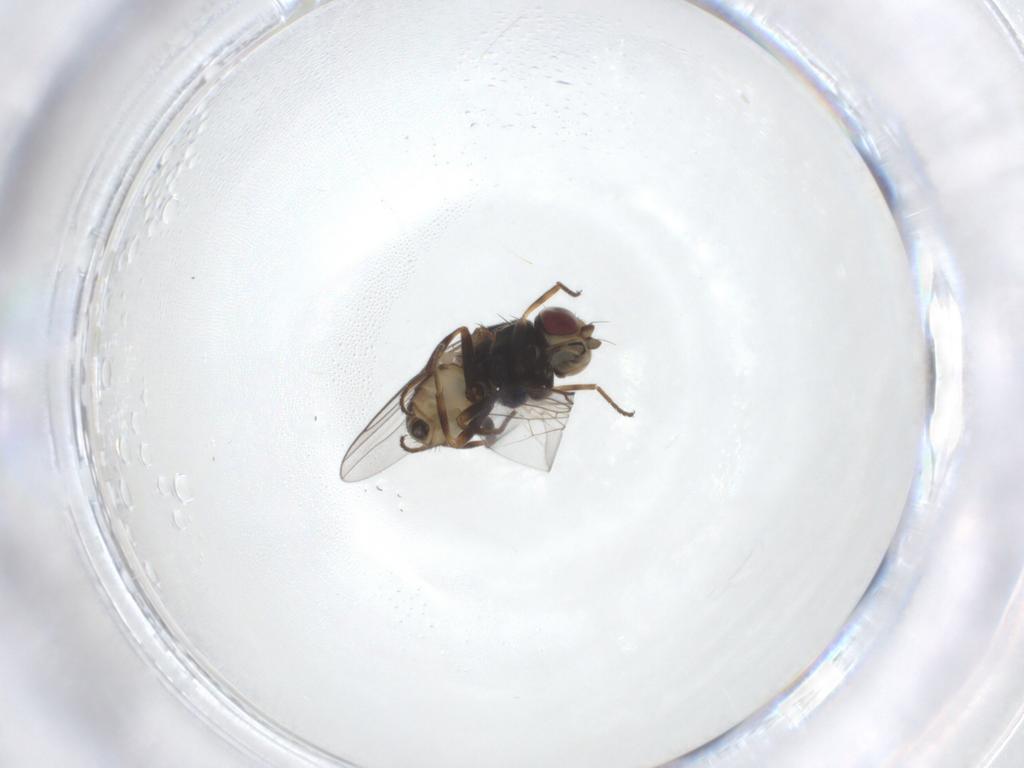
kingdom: Animalia
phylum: Arthropoda
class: Insecta
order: Diptera
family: Chloropidae
